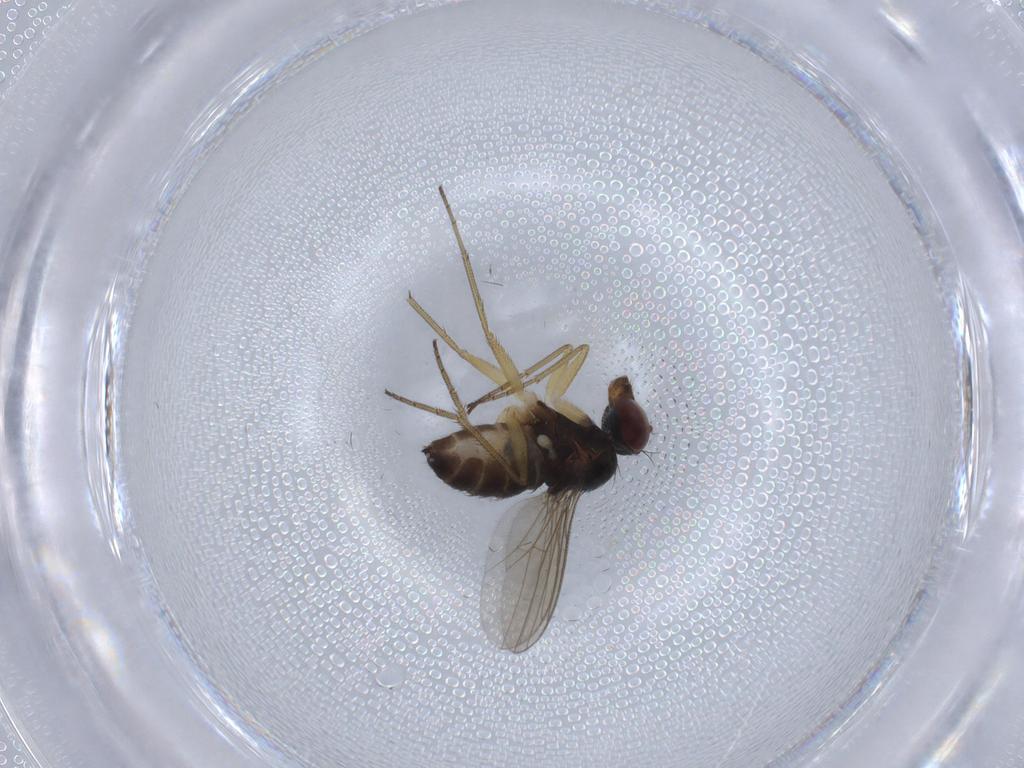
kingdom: Animalia
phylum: Arthropoda
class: Insecta
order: Diptera
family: Dolichopodidae
